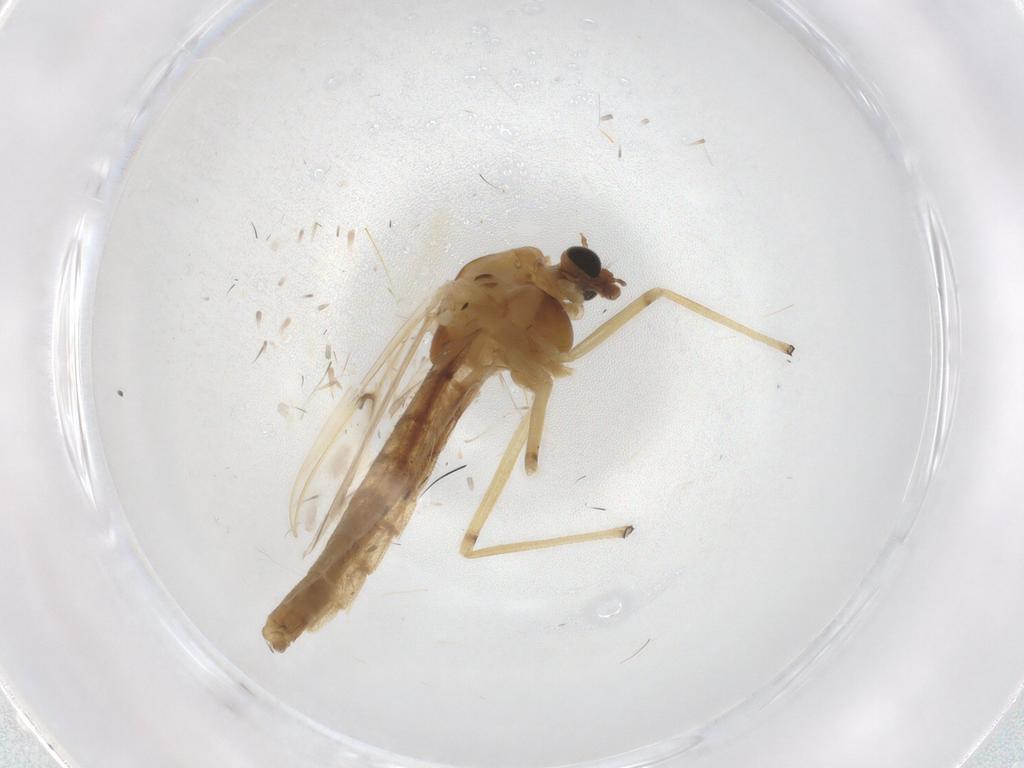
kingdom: Animalia
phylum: Arthropoda
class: Insecta
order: Diptera
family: Chironomidae
